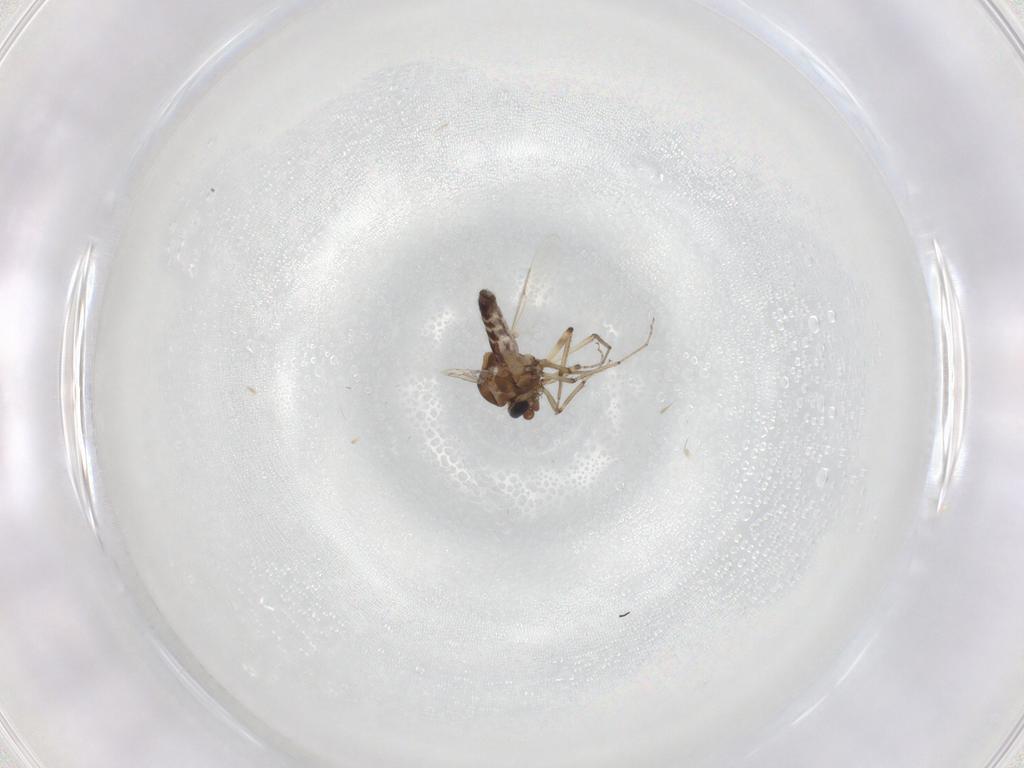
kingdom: Animalia
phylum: Arthropoda
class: Insecta
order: Diptera
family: Ceratopogonidae
